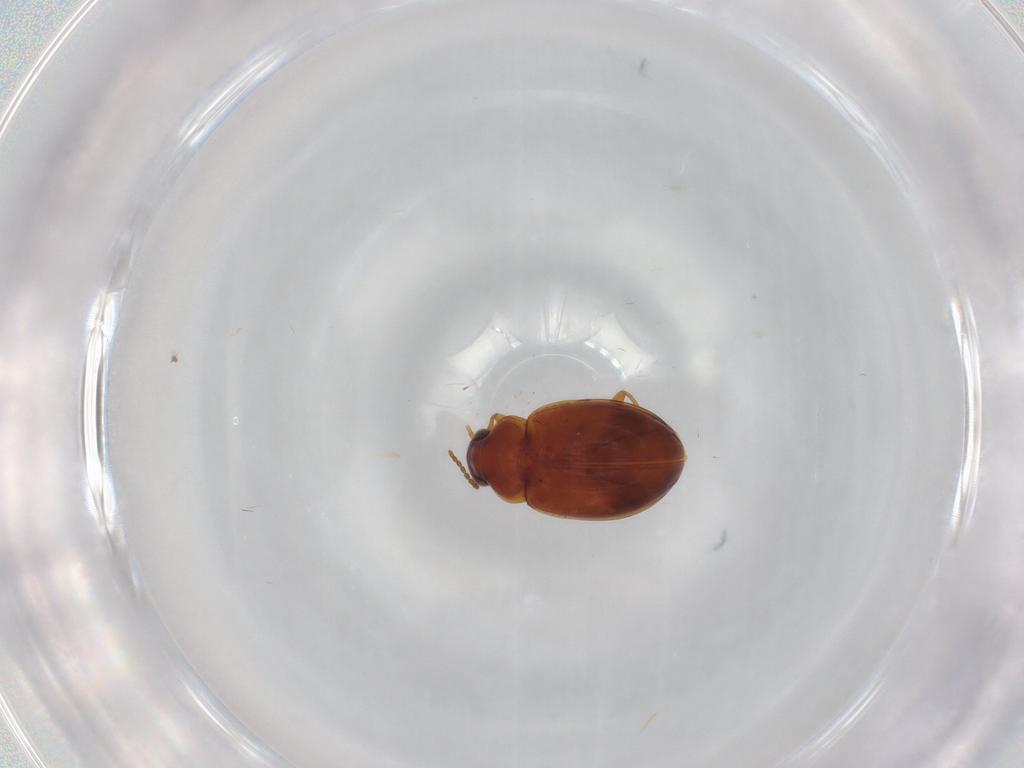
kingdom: Animalia
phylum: Arthropoda
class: Insecta
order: Coleoptera
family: Curculionidae
